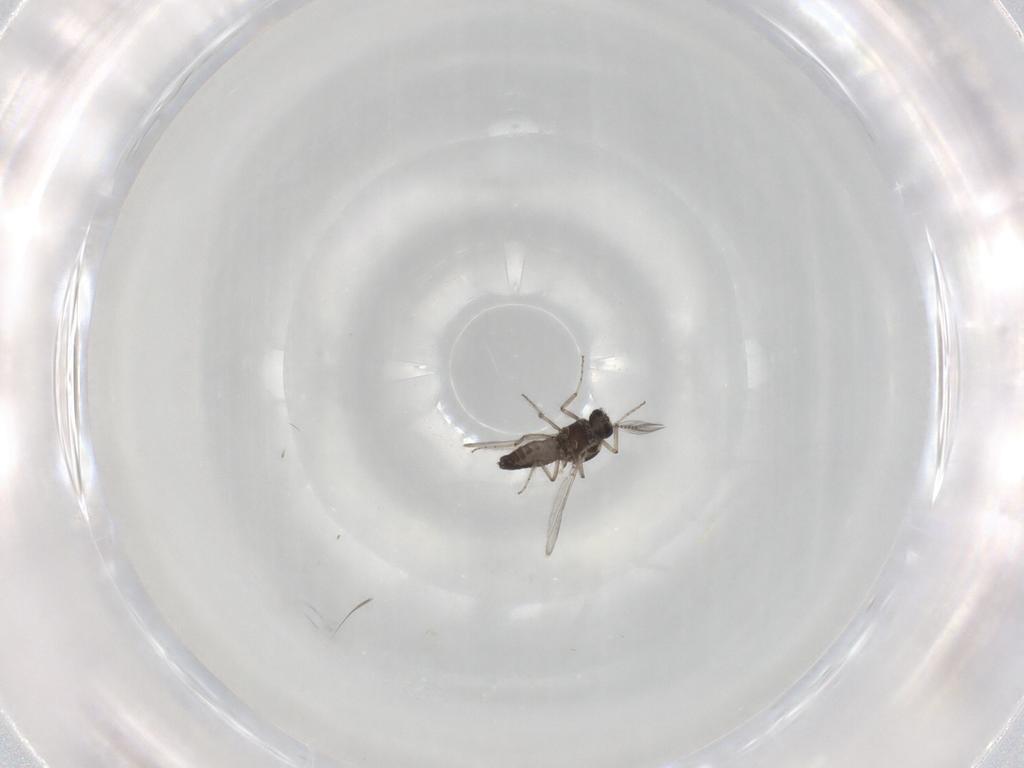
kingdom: Animalia
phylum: Arthropoda
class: Insecta
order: Diptera
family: Ceratopogonidae
